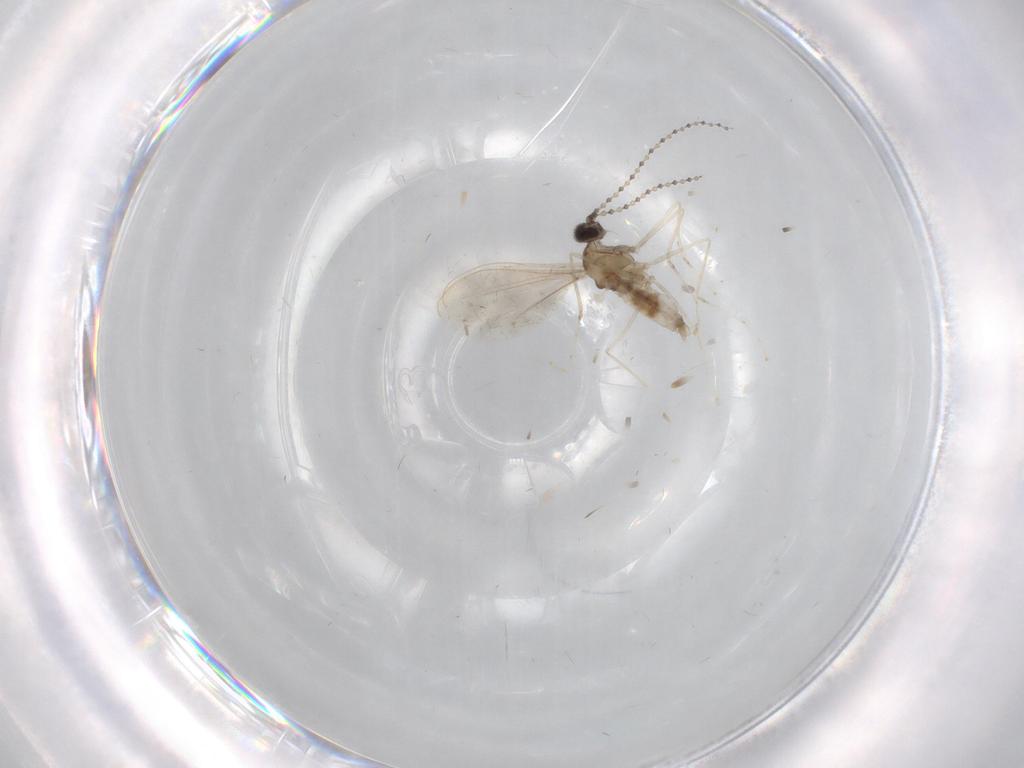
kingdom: Animalia
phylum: Arthropoda
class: Insecta
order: Diptera
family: Cecidomyiidae
